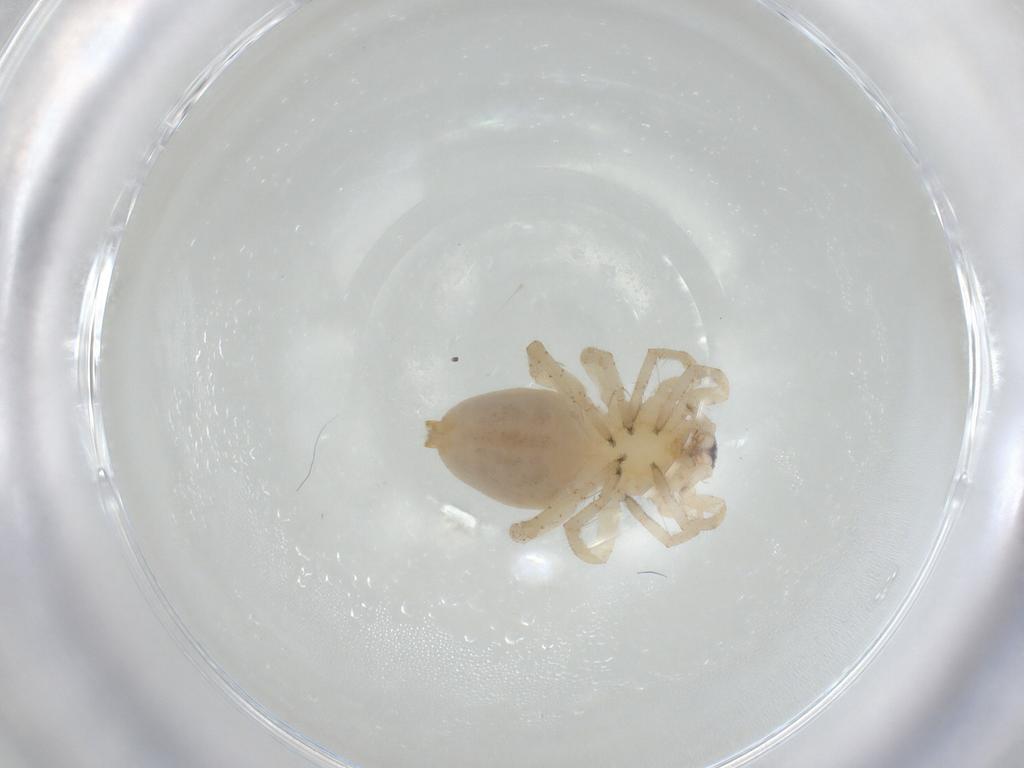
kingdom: Animalia
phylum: Arthropoda
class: Arachnida
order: Araneae
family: Clubionidae
